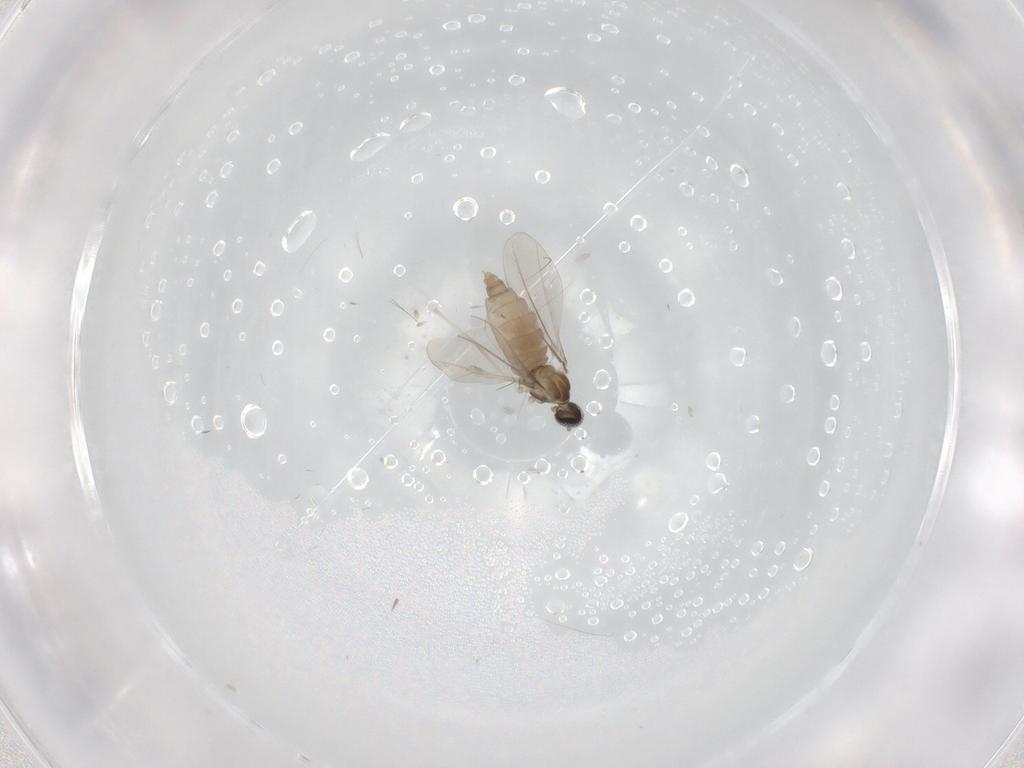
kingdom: Animalia
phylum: Arthropoda
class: Insecta
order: Diptera
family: Cecidomyiidae
